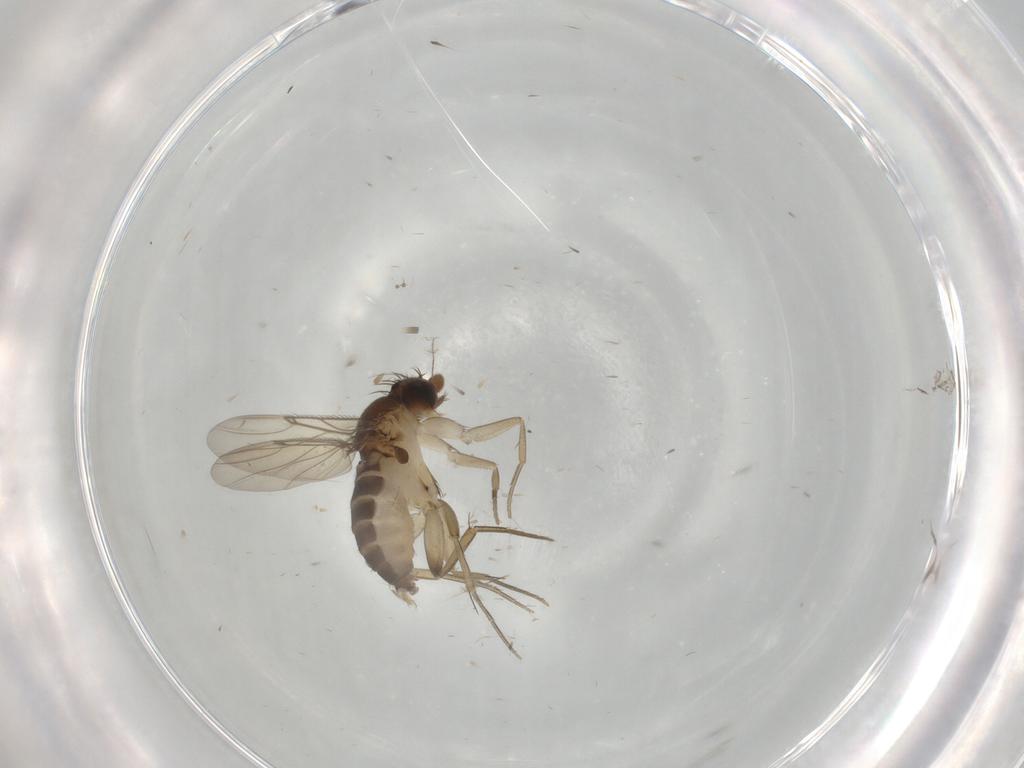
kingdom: Animalia
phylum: Arthropoda
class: Insecta
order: Diptera
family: Phoridae
